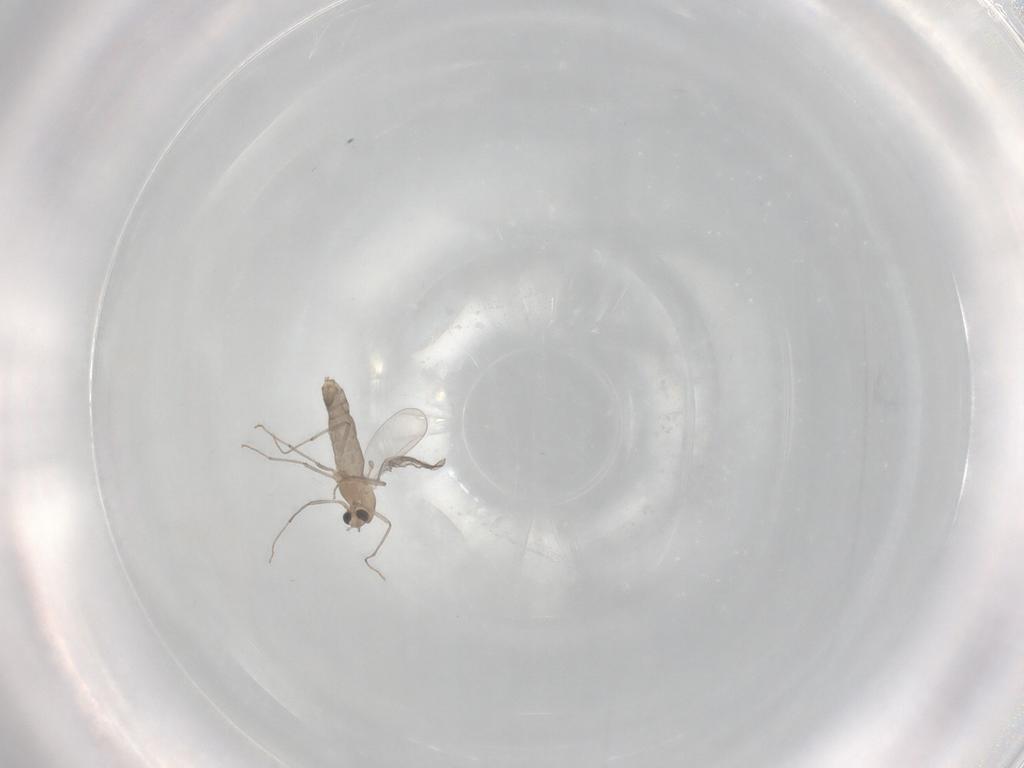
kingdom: Animalia
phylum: Arthropoda
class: Insecta
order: Diptera
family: Chironomidae
